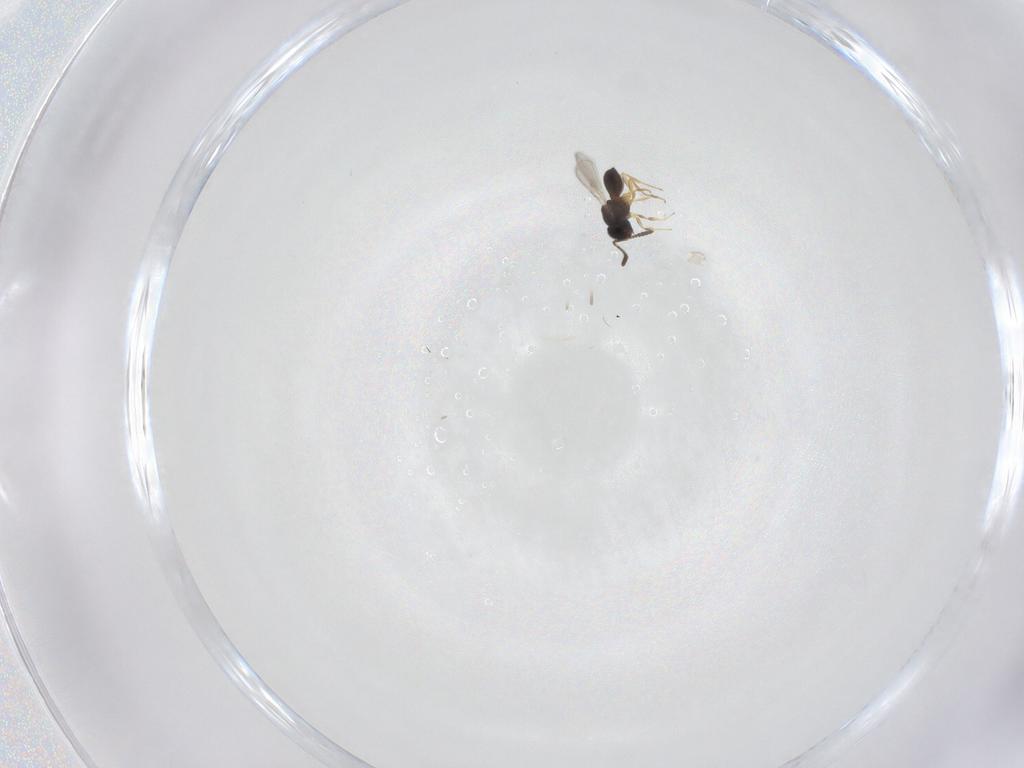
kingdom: Animalia
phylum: Arthropoda
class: Insecta
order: Hymenoptera
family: Scelionidae
